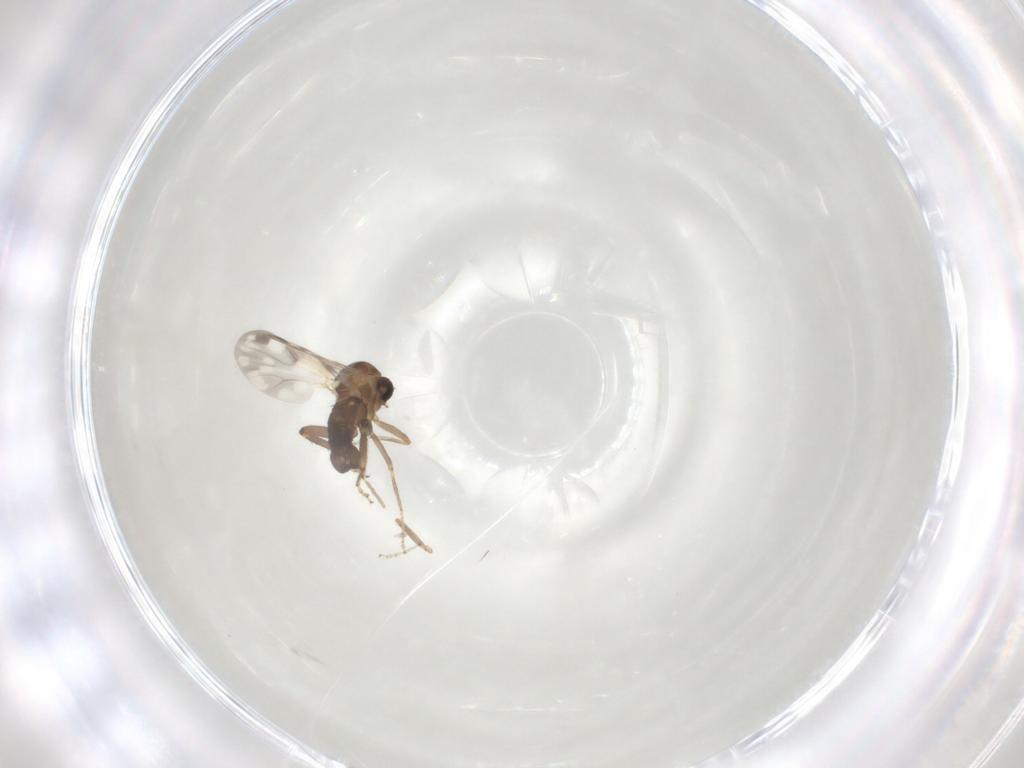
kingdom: Animalia
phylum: Arthropoda
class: Insecta
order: Diptera
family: Ceratopogonidae
